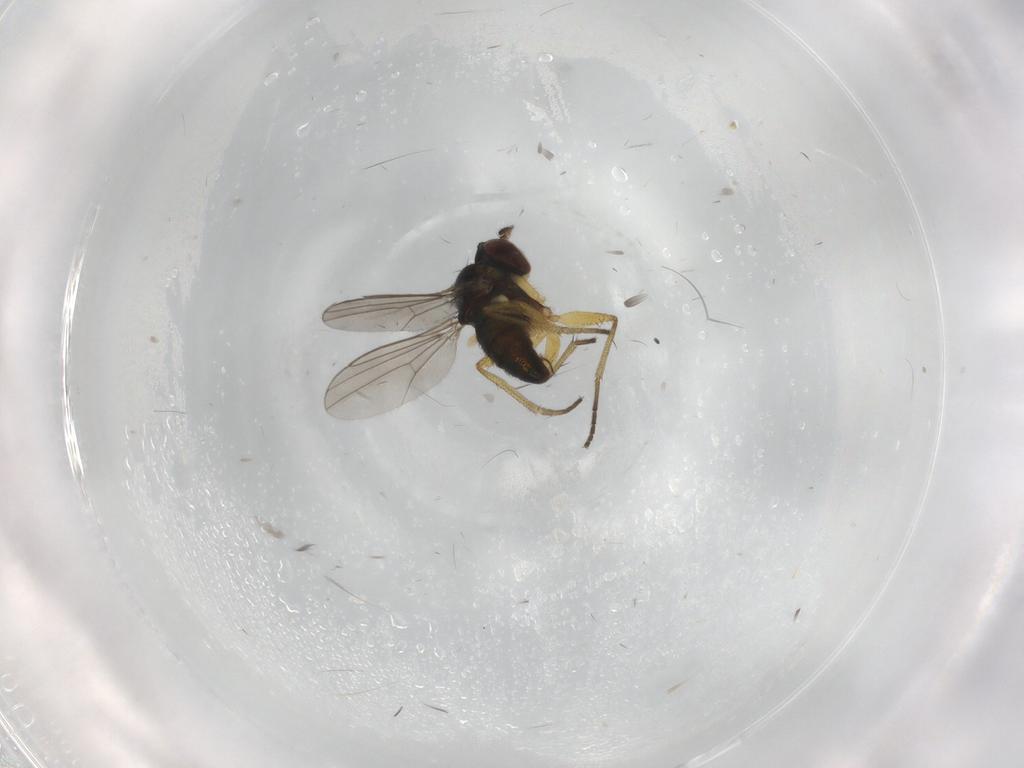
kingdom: Animalia
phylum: Arthropoda
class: Insecta
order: Diptera
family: Dolichopodidae
